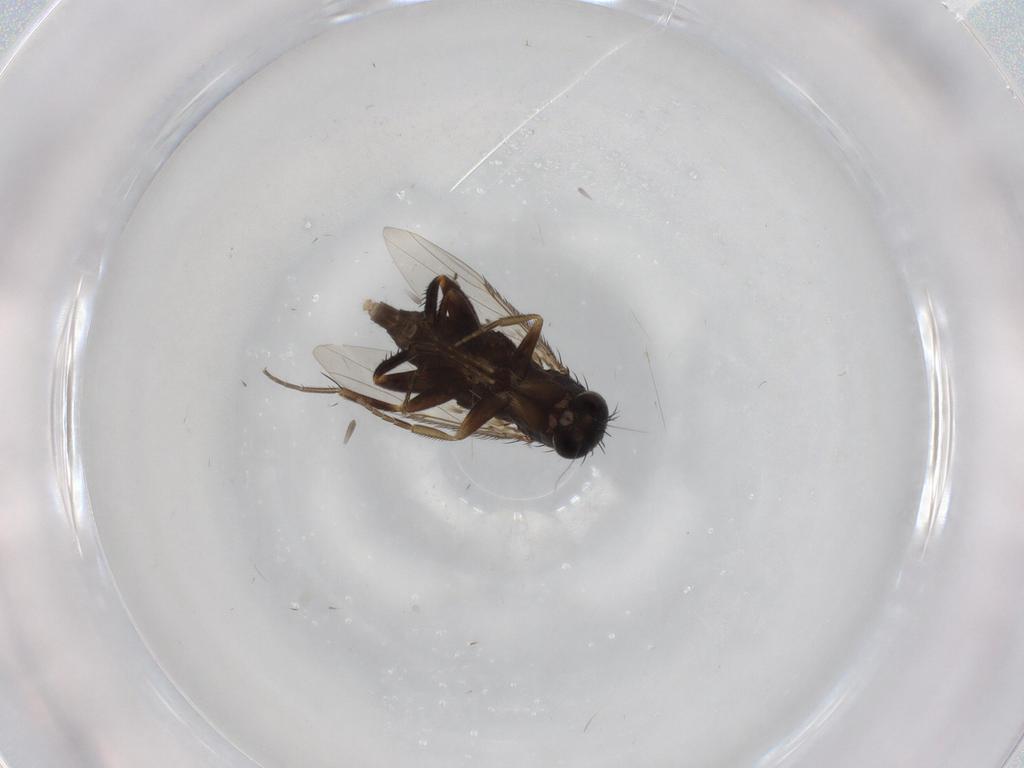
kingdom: Animalia
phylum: Arthropoda
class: Insecta
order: Diptera
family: Phoridae
